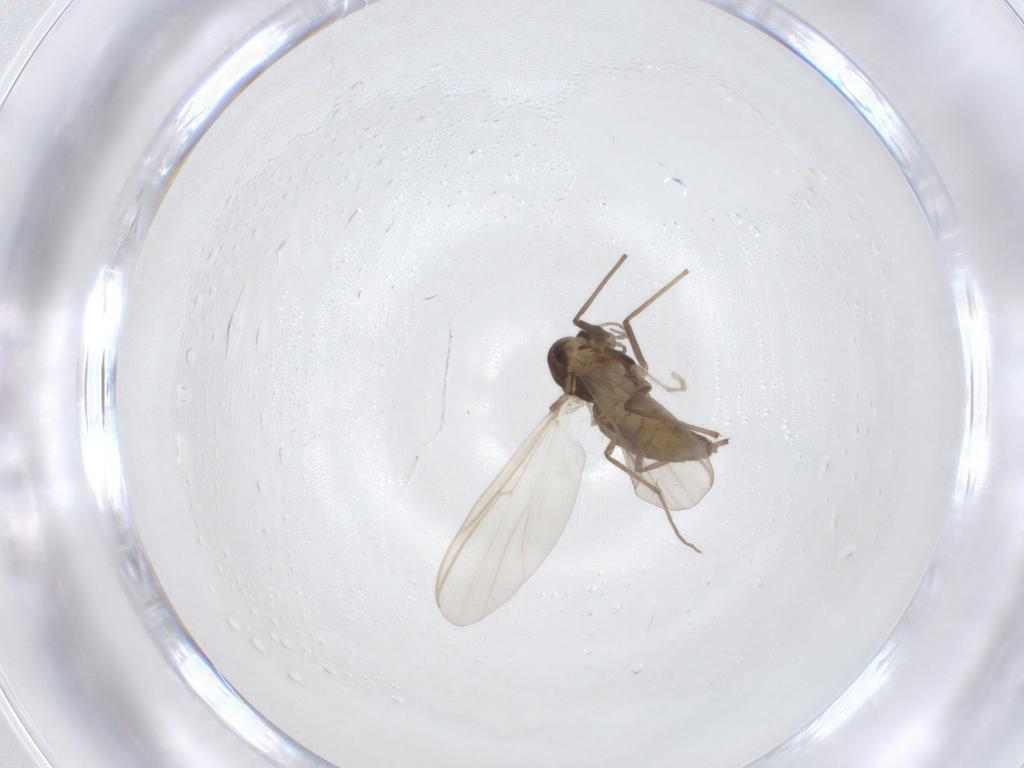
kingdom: Animalia
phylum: Arthropoda
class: Insecta
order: Diptera
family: Chironomidae
